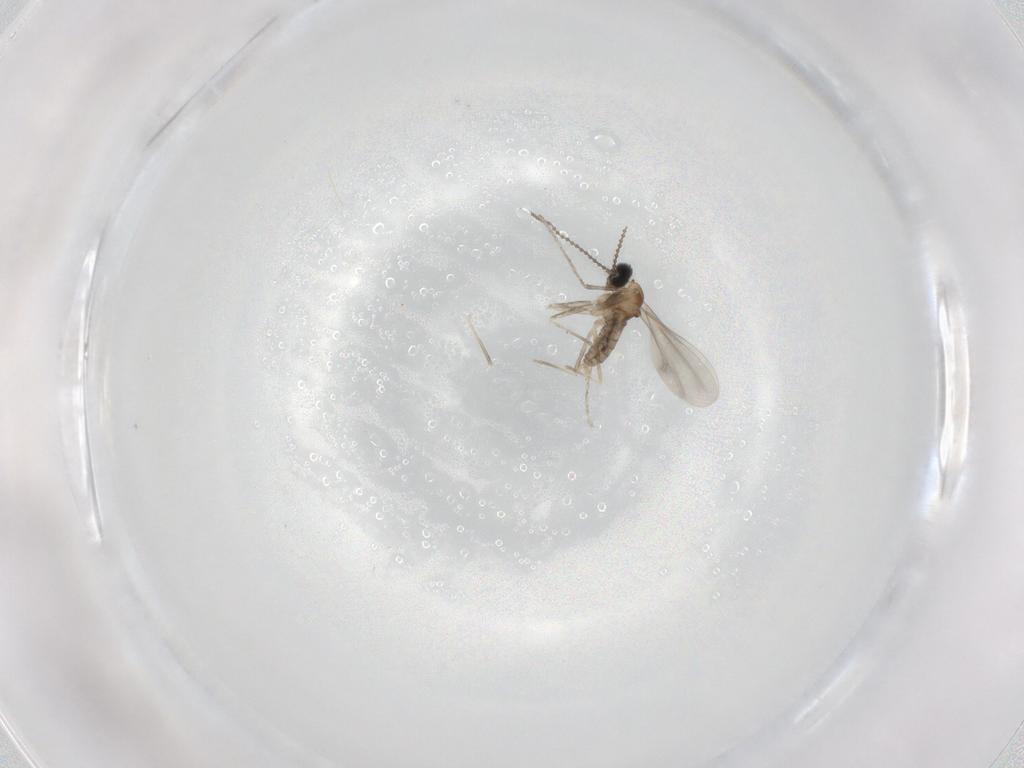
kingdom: Animalia
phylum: Arthropoda
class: Insecta
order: Diptera
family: Cecidomyiidae
